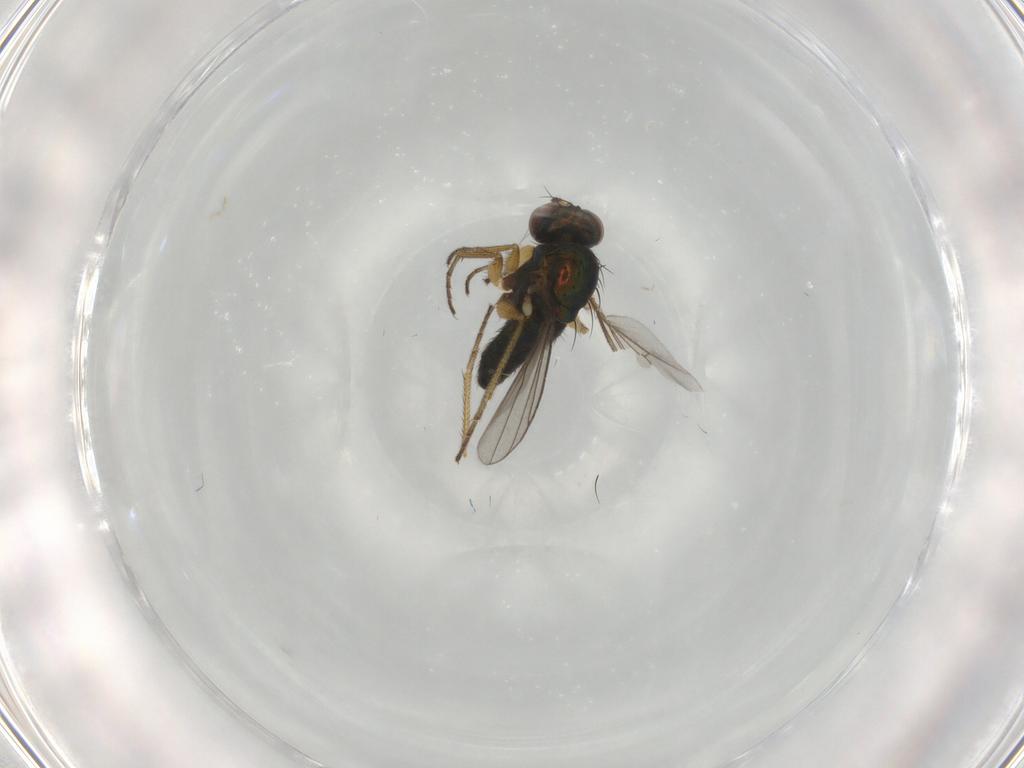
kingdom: Animalia
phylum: Arthropoda
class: Insecta
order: Diptera
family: Dolichopodidae
